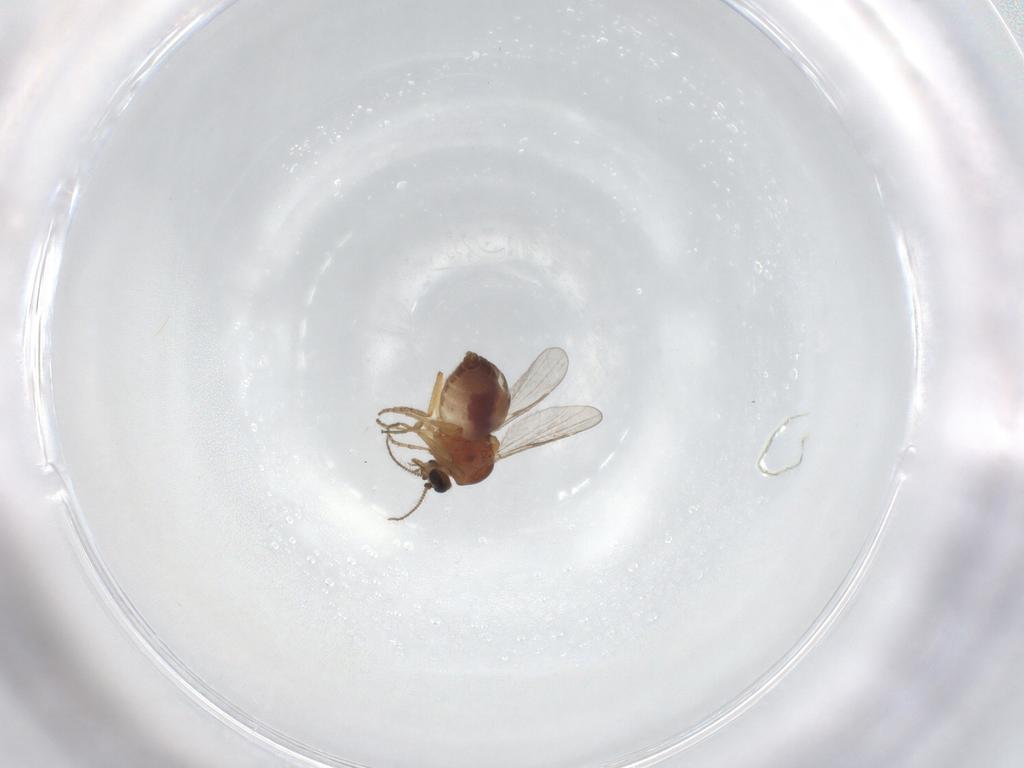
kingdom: Animalia
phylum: Arthropoda
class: Insecta
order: Diptera
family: Ceratopogonidae
